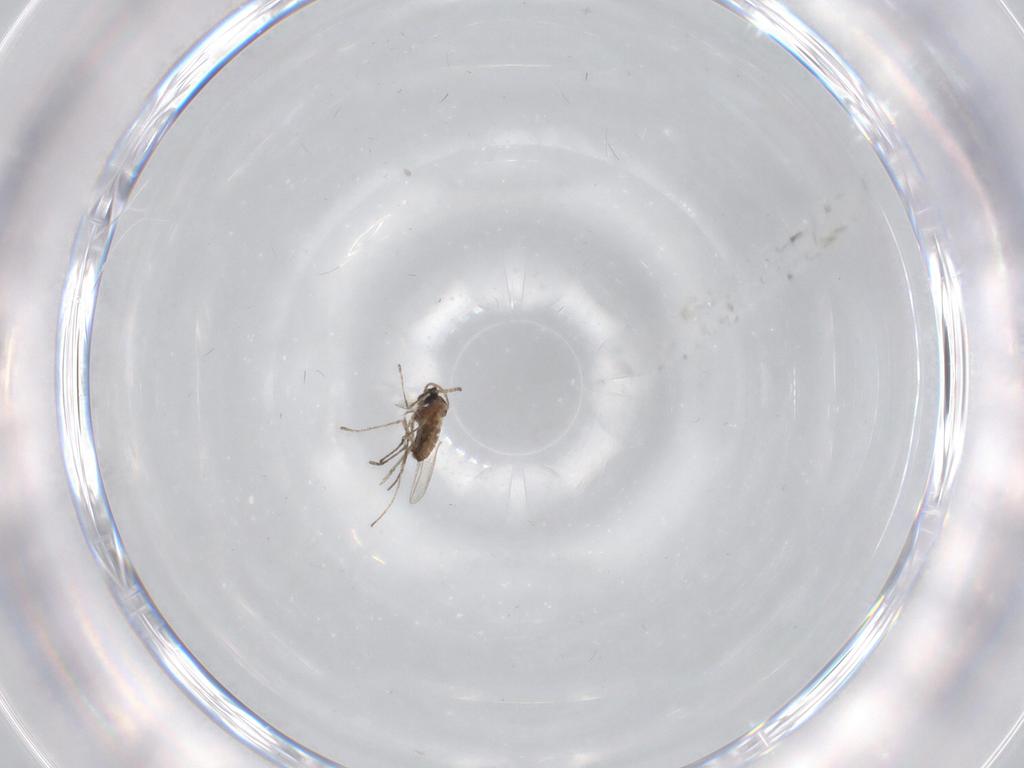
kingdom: Animalia
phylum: Arthropoda
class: Insecta
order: Diptera
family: Cecidomyiidae
